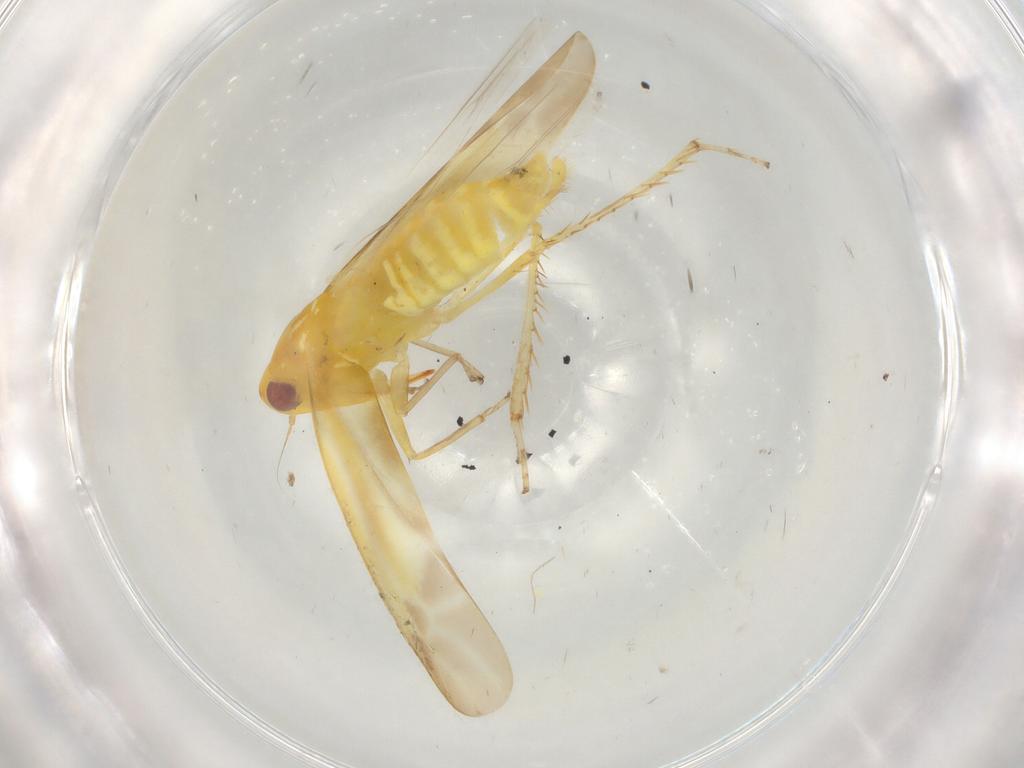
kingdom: Animalia
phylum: Arthropoda
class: Insecta
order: Hemiptera
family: Cicadellidae
